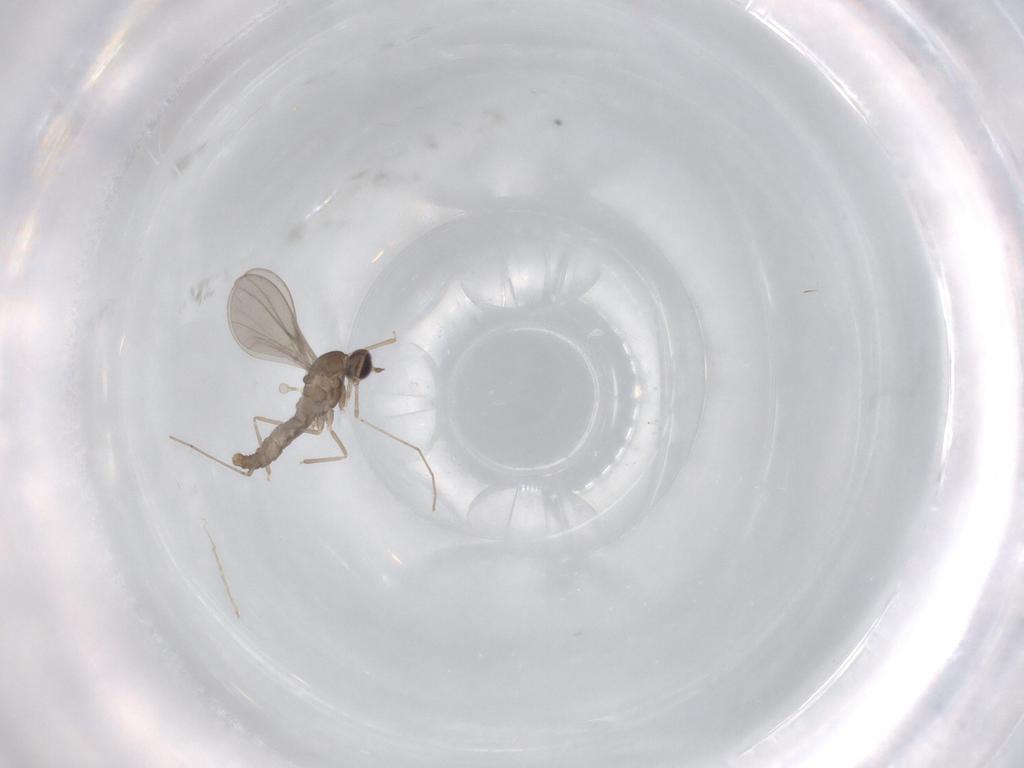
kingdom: Animalia
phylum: Arthropoda
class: Insecta
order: Diptera
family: Cecidomyiidae
